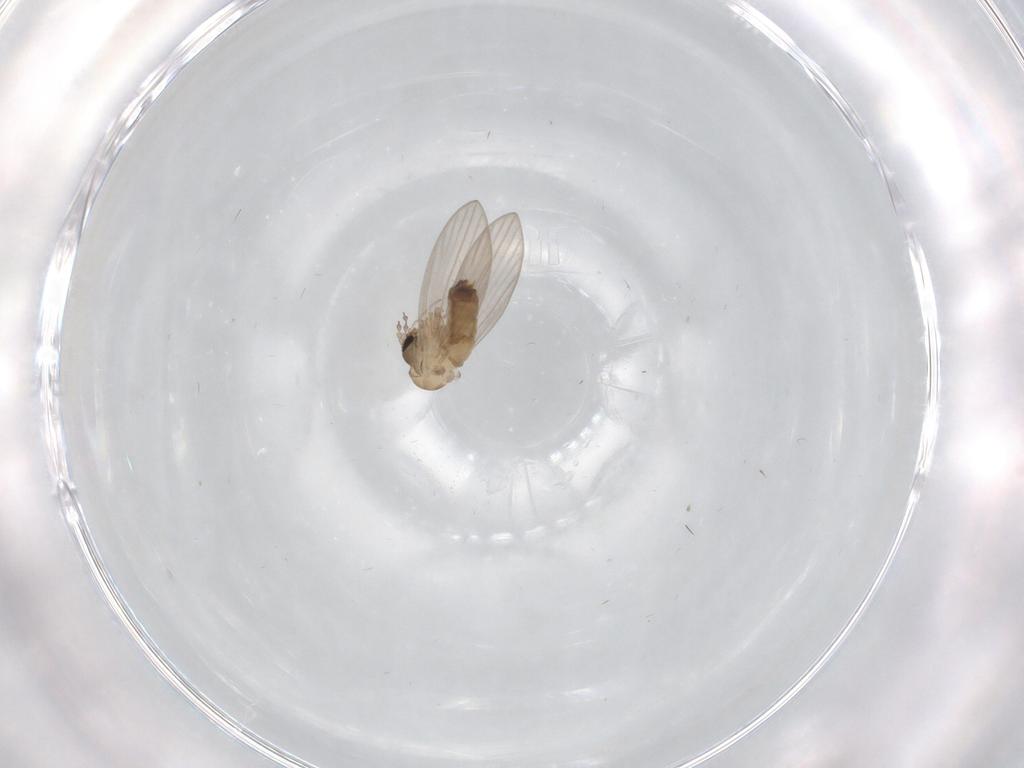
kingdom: Animalia
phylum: Arthropoda
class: Insecta
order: Diptera
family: Psychodidae
